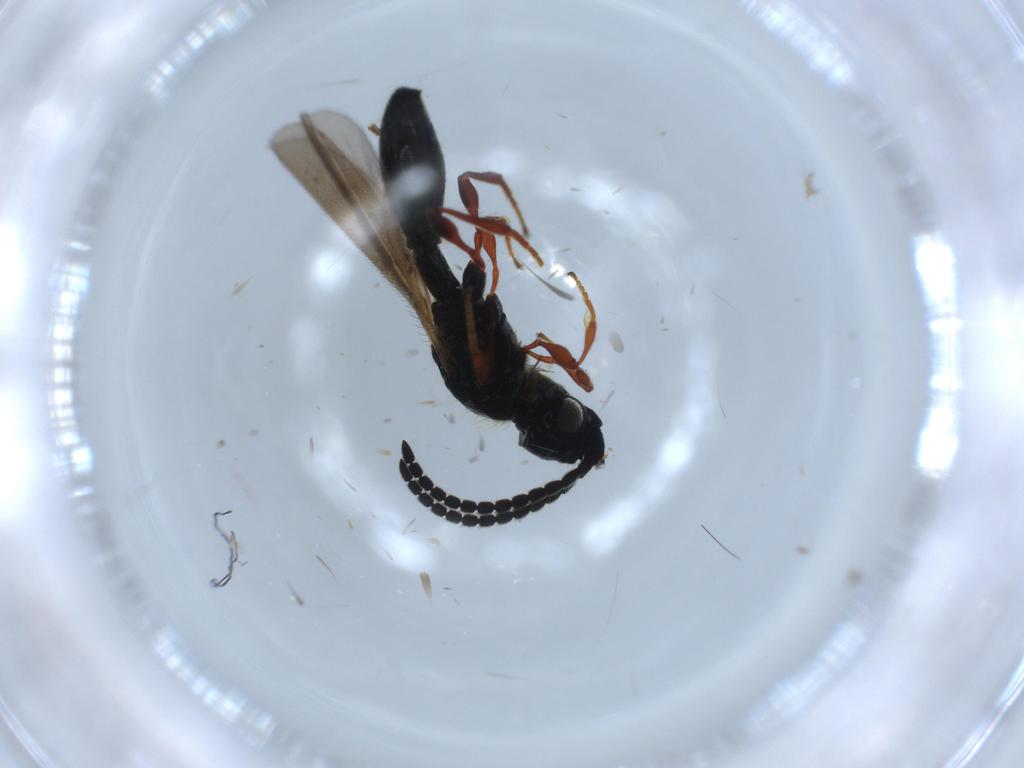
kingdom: Animalia
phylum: Arthropoda
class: Insecta
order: Hymenoptera
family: Diapriidae
